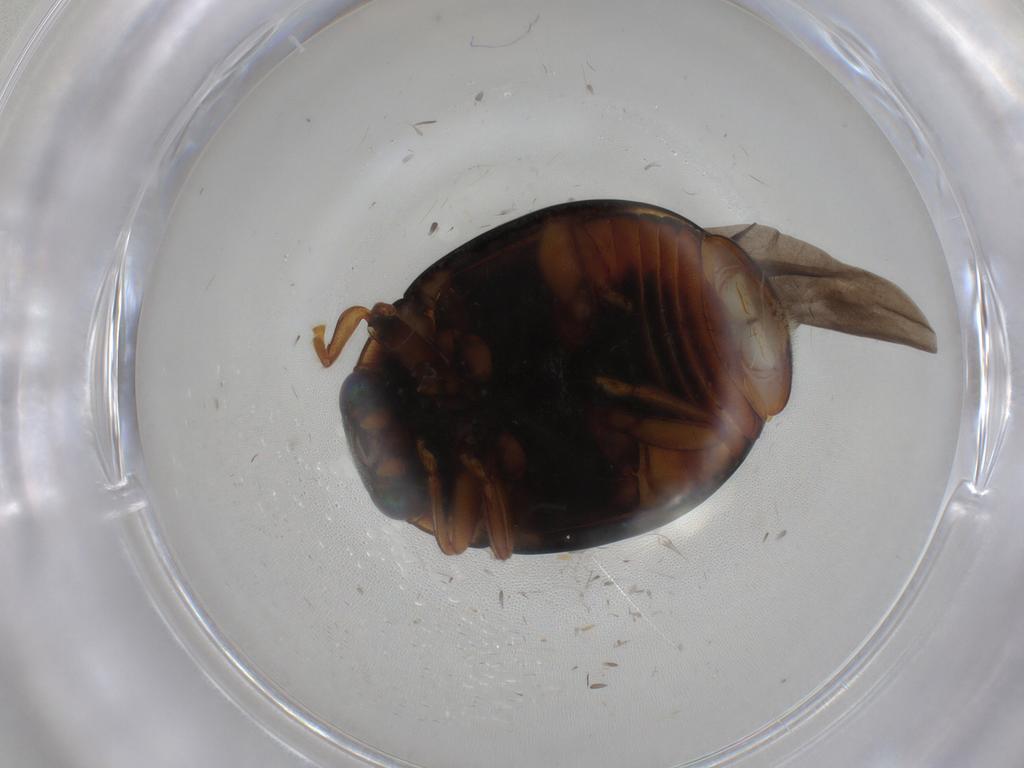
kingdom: Animalia
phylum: Arthropoda
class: Insecta
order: Coleoptera
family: Coccinellidae
